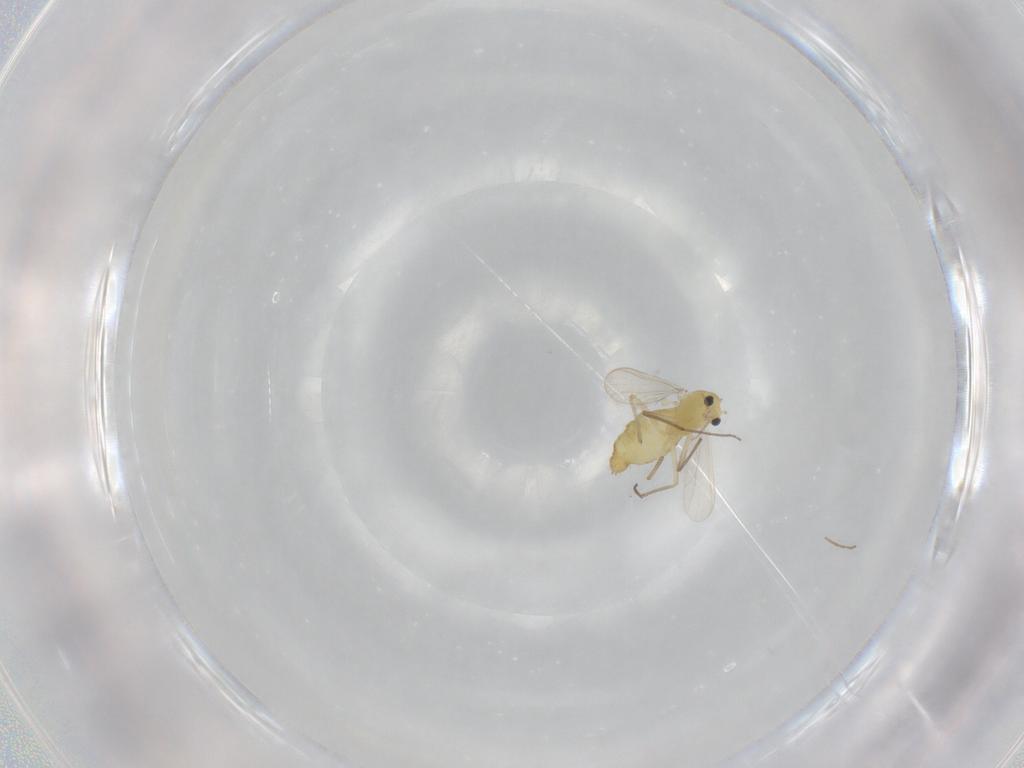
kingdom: Animalia
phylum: Arthropoda
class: Insecta
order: Diptera
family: Chironomidae
